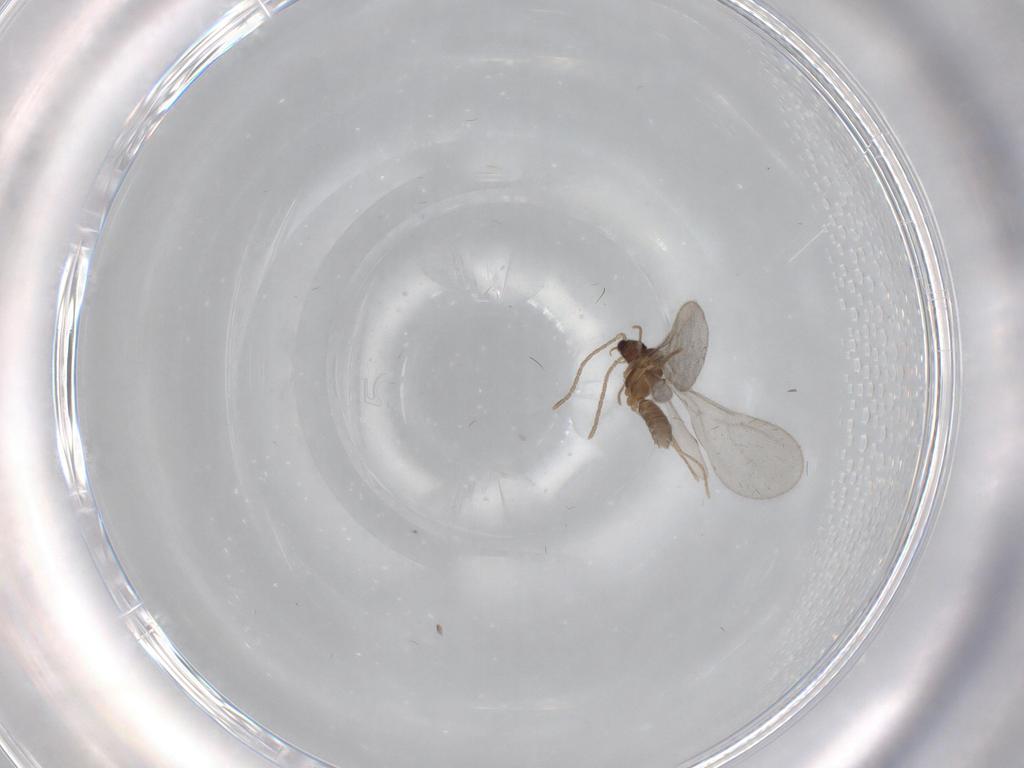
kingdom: Animalia
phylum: Arthropoda
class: Insecta
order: Hymenoptera
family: Formicidae
